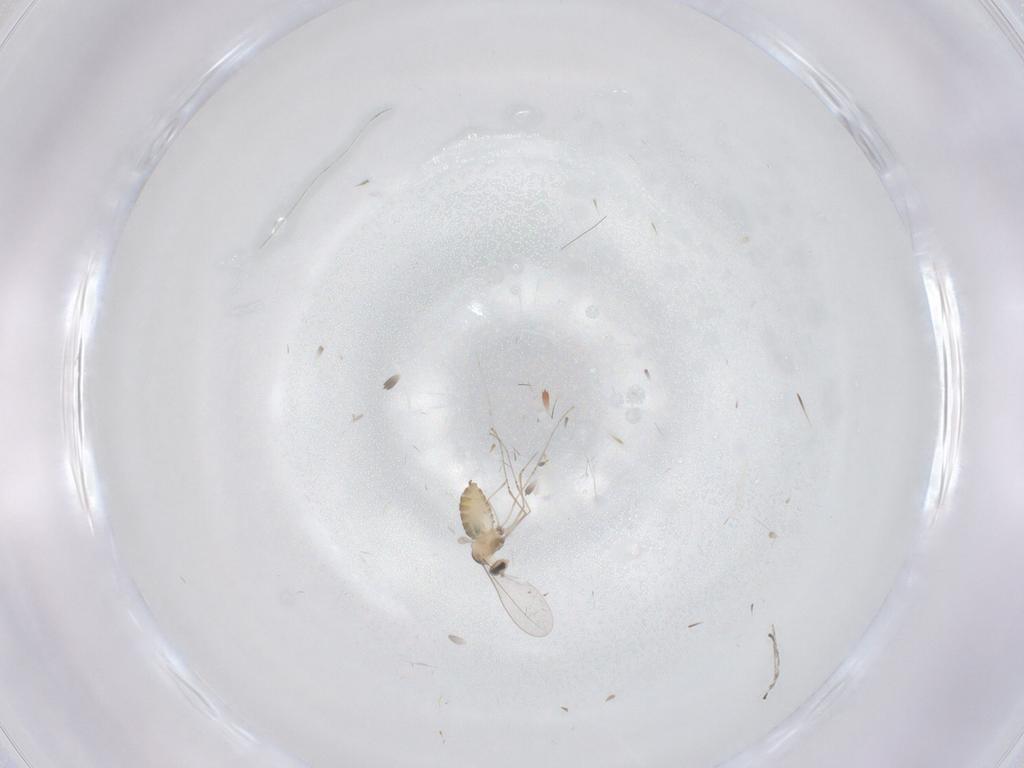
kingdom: Animalia
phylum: Arthropoda
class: Insecta
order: Diptera
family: Cecidomyiidae
